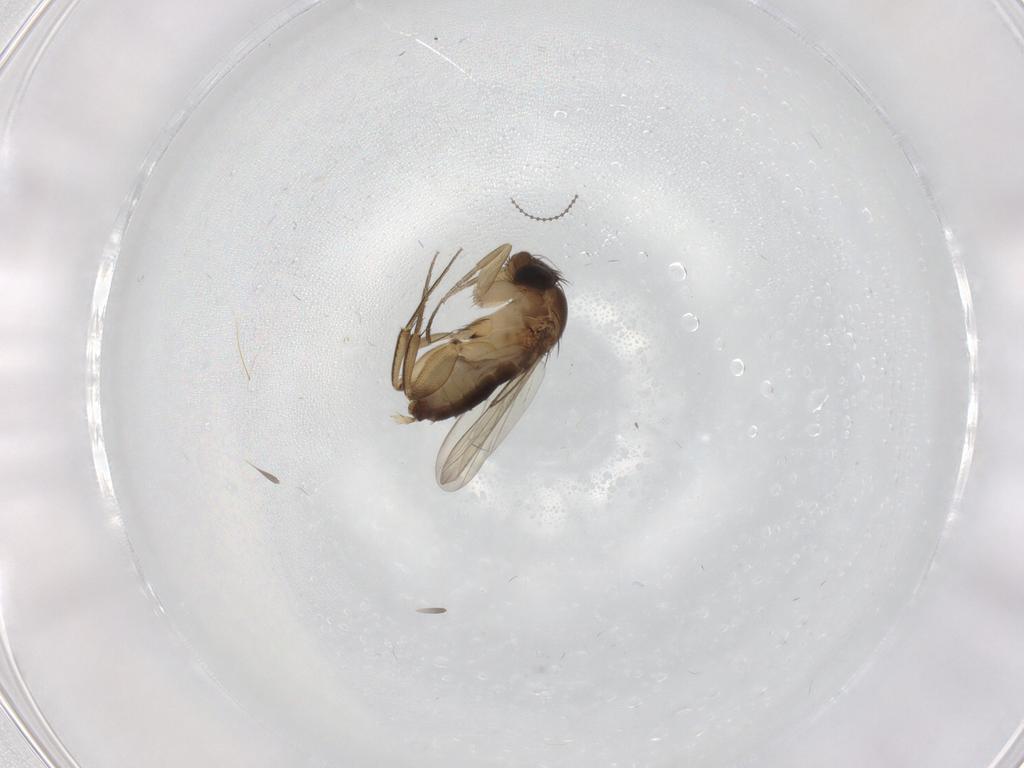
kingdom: Animalia
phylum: Arthropoda
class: Insecta
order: Diptera
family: Phoridae
